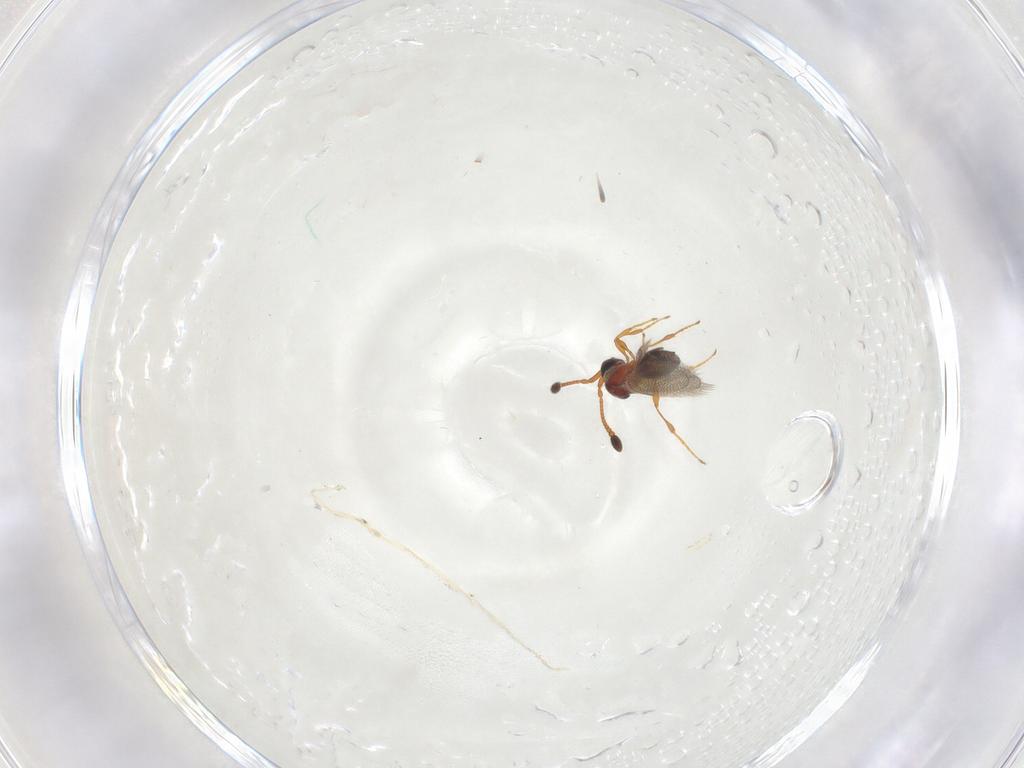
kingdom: Animalia
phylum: Arthropoda
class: Insecta
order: Hymenoptera
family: Diapriidae
